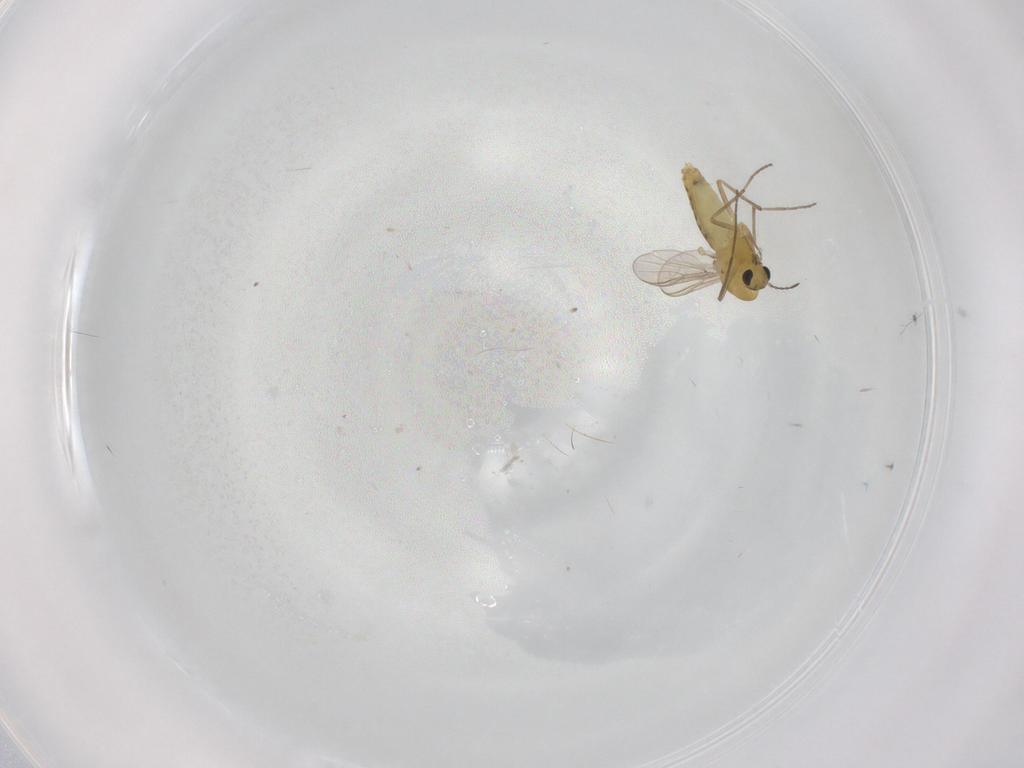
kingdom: Animalia
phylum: Arthropoda
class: Insecta
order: Diptera
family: Chironomidae
